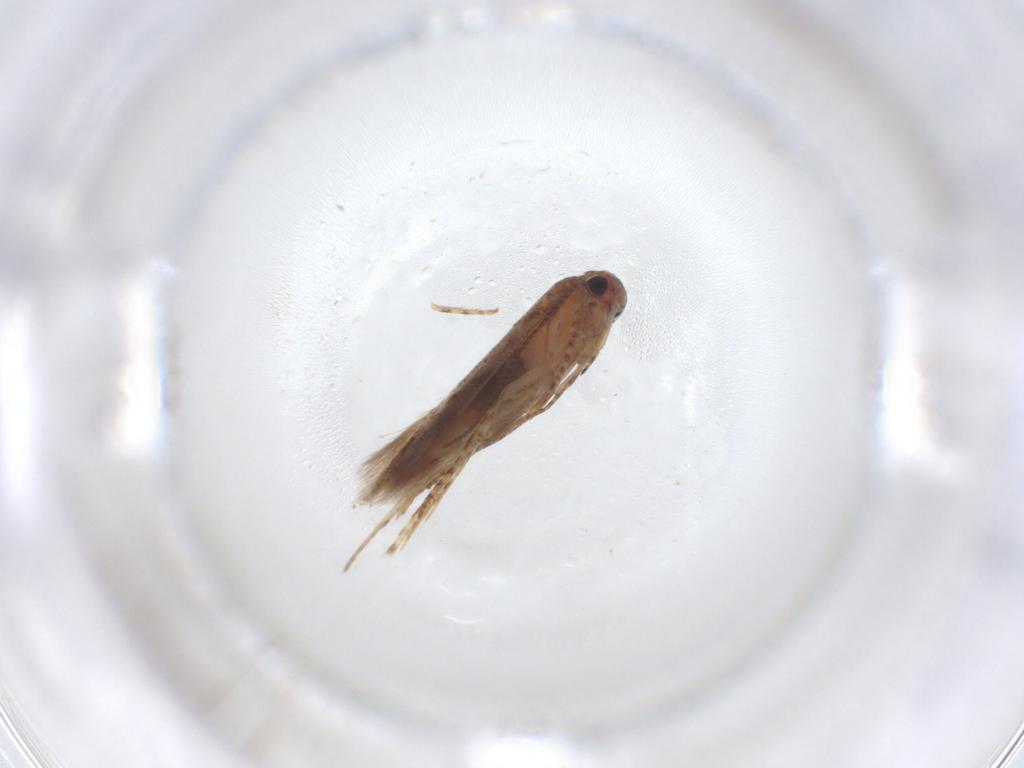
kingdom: Animalia
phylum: Arthropoda
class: Insecta
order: Lepidoptera
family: Gelechiidae
